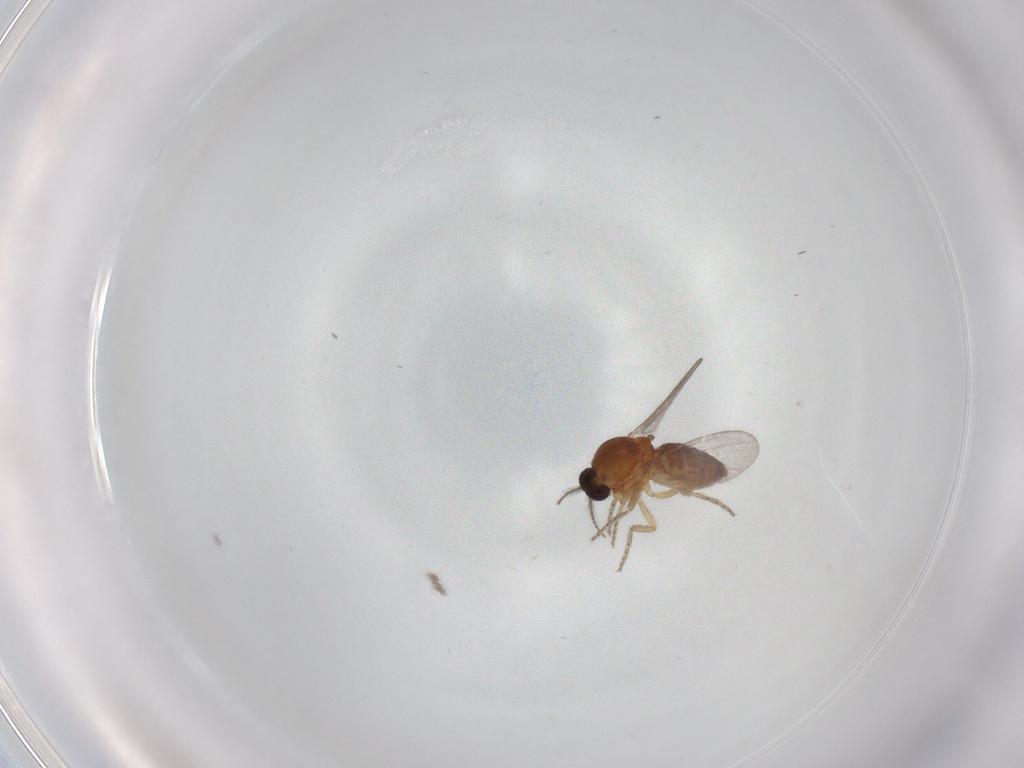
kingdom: Animalia
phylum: Arthropoda
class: Insecta
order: Diptera
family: Ceratopogonidae
